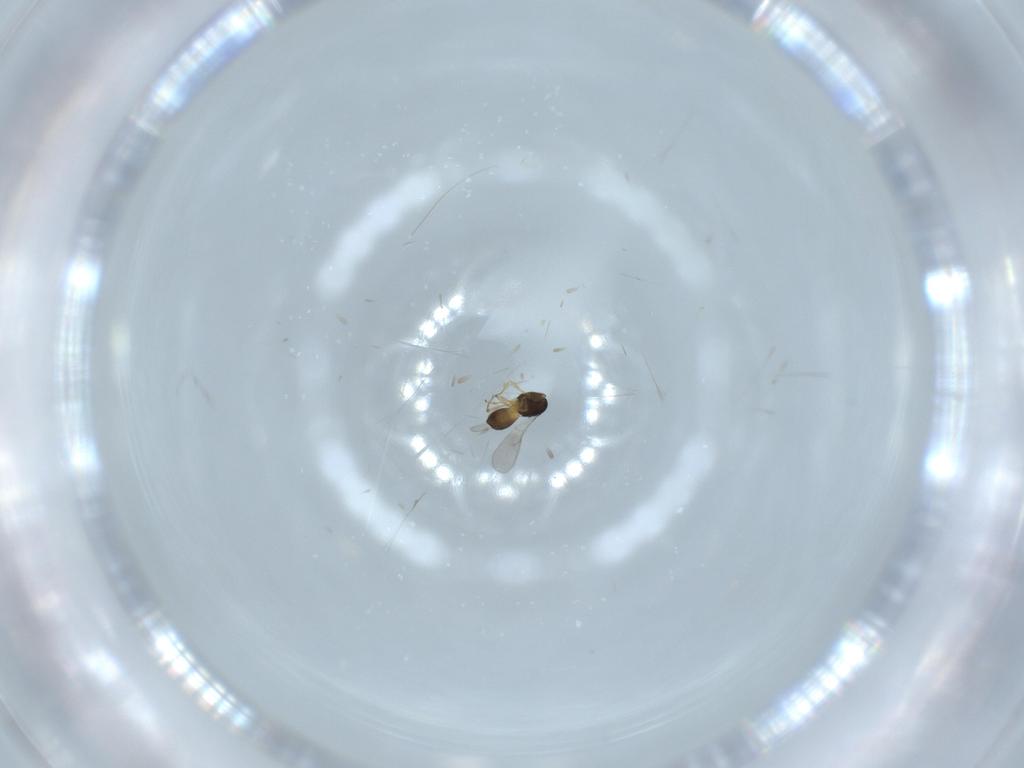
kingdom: Animalia
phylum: Arthropoda
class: Insecta
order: Hymenoptera
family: Scelionidae
